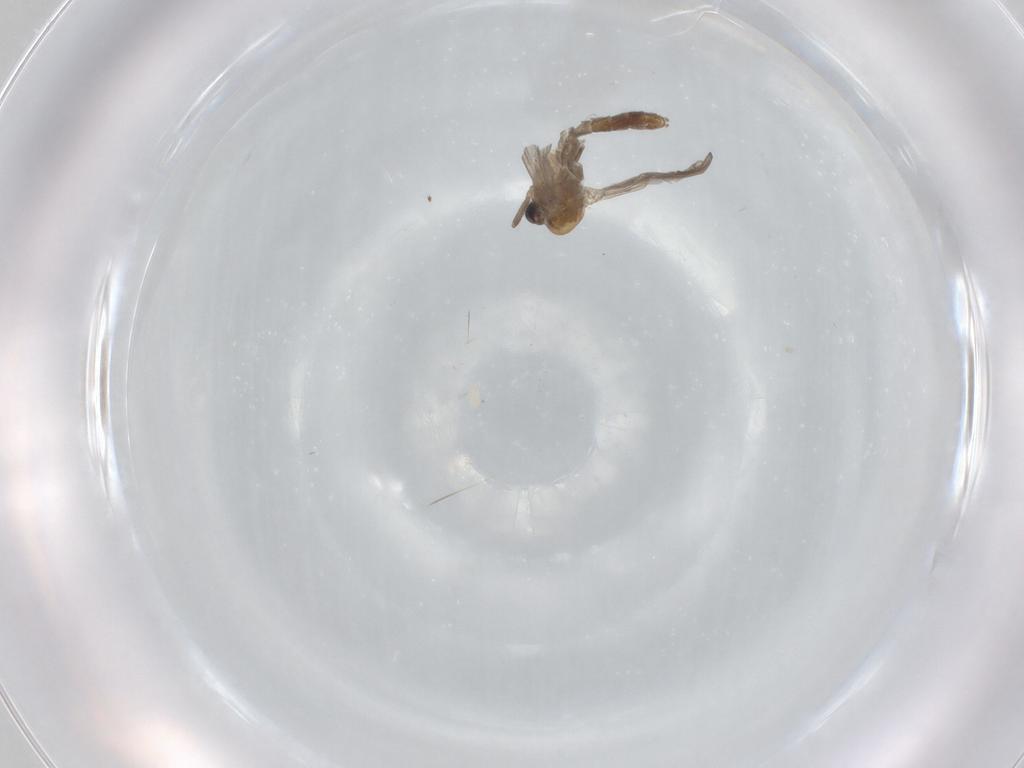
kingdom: Animalia
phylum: Arthropoda
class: Insecta
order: Diptera
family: Chironomidae
